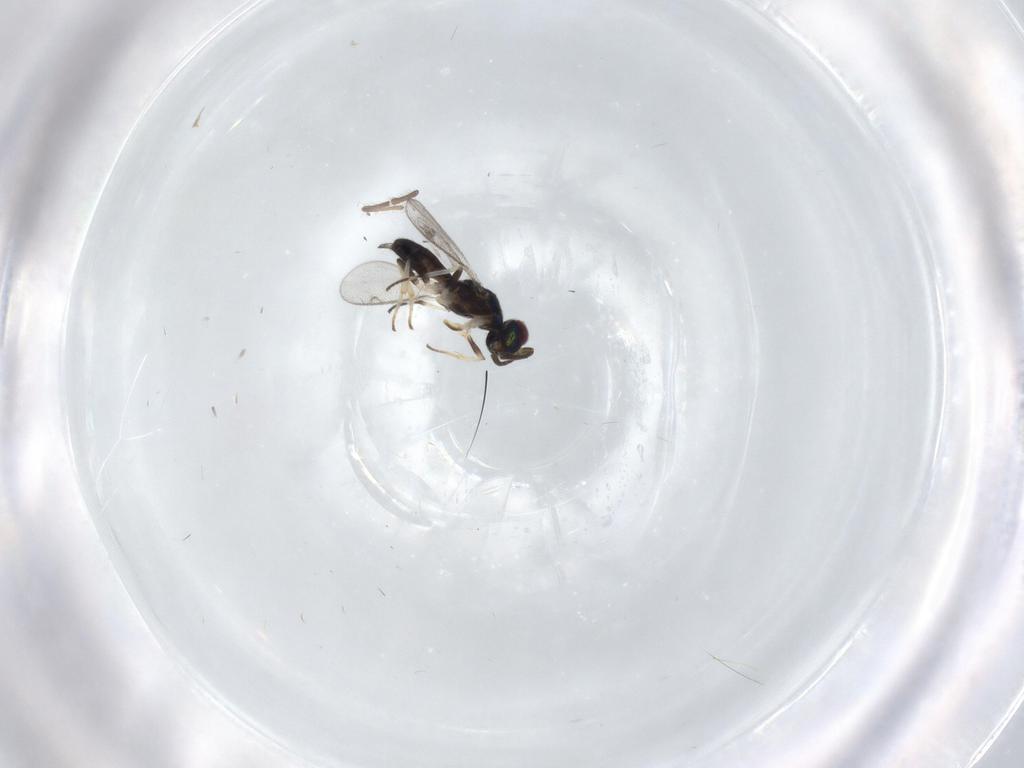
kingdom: Animalia
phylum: Arthropoda
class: Insecta
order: Hymenoptera
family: Eupelmidae
